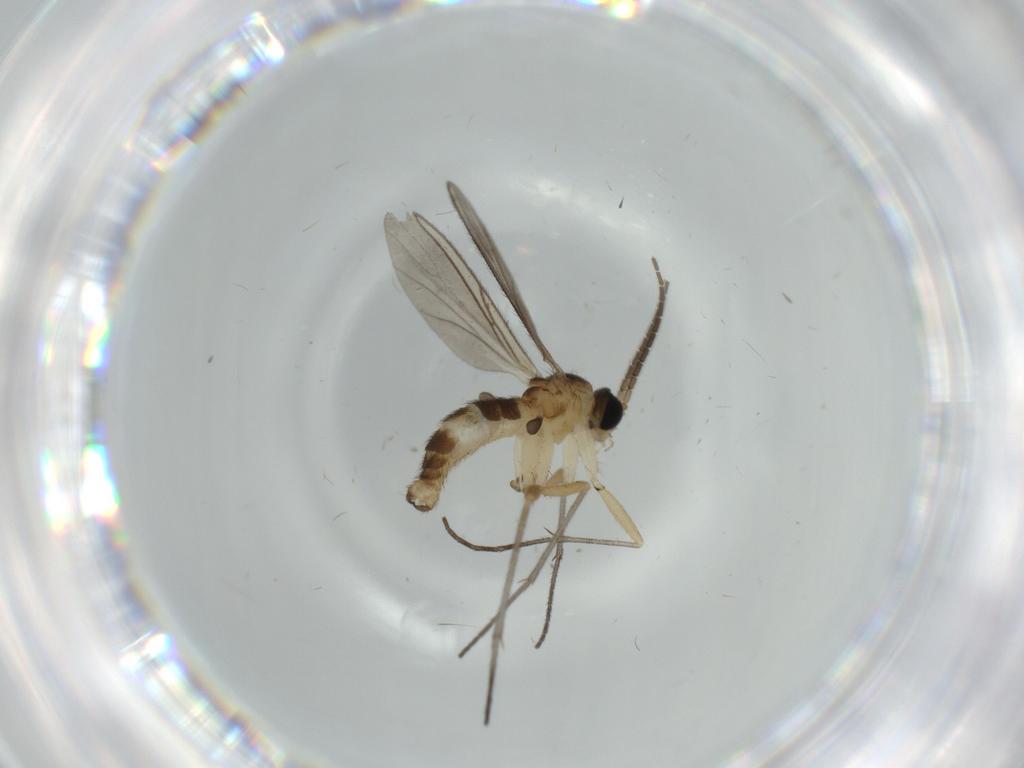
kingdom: Animalia
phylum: Arthropoda
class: Insecta
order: Diptera
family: Sciaridae
